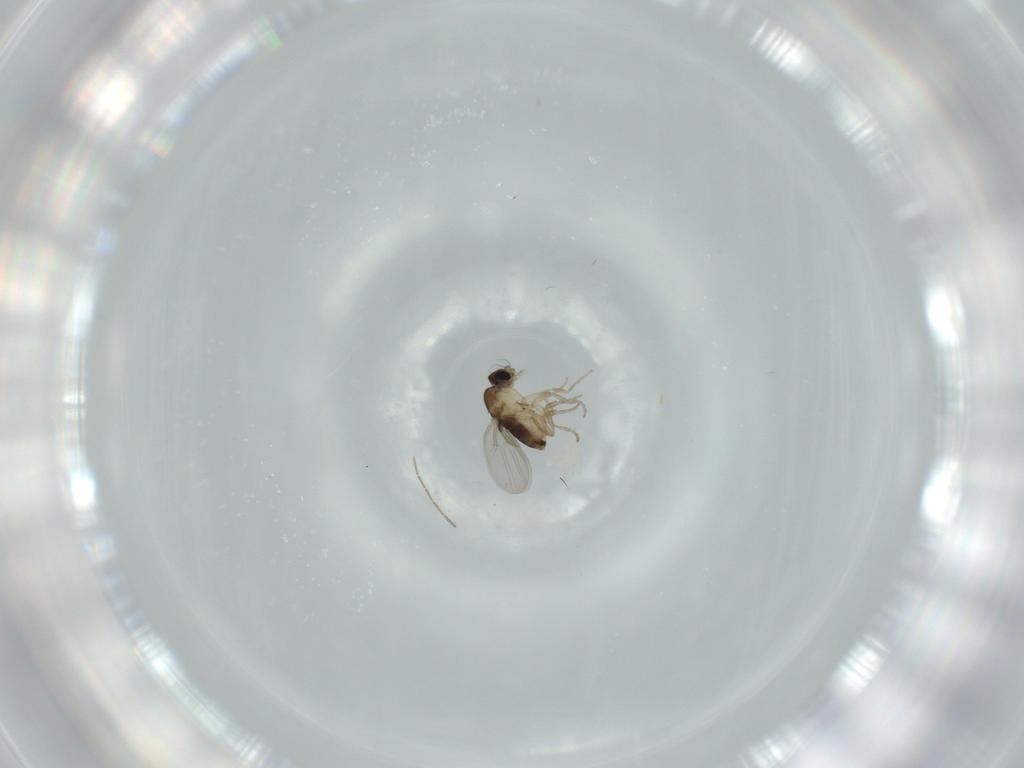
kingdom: Animalia
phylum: Arthropoda
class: Insecta
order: Diptera
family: Cecidomyiidae
